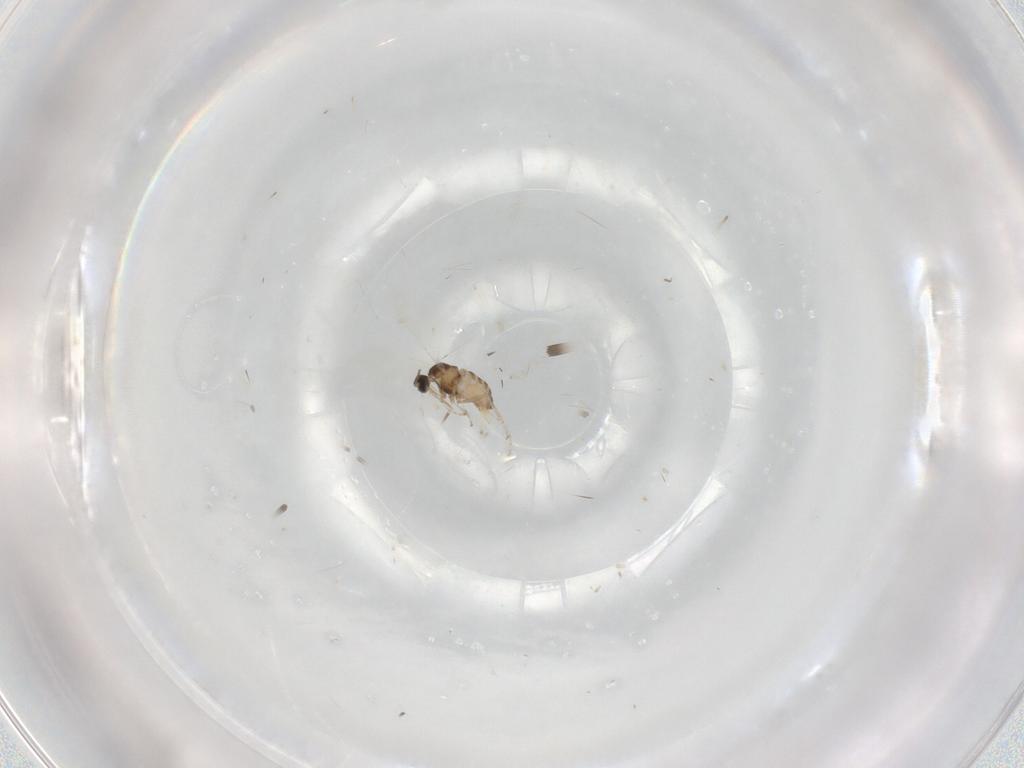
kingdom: Animalia
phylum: Arthropoda
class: Insecta
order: Diptera
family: Cecidomyiidae
